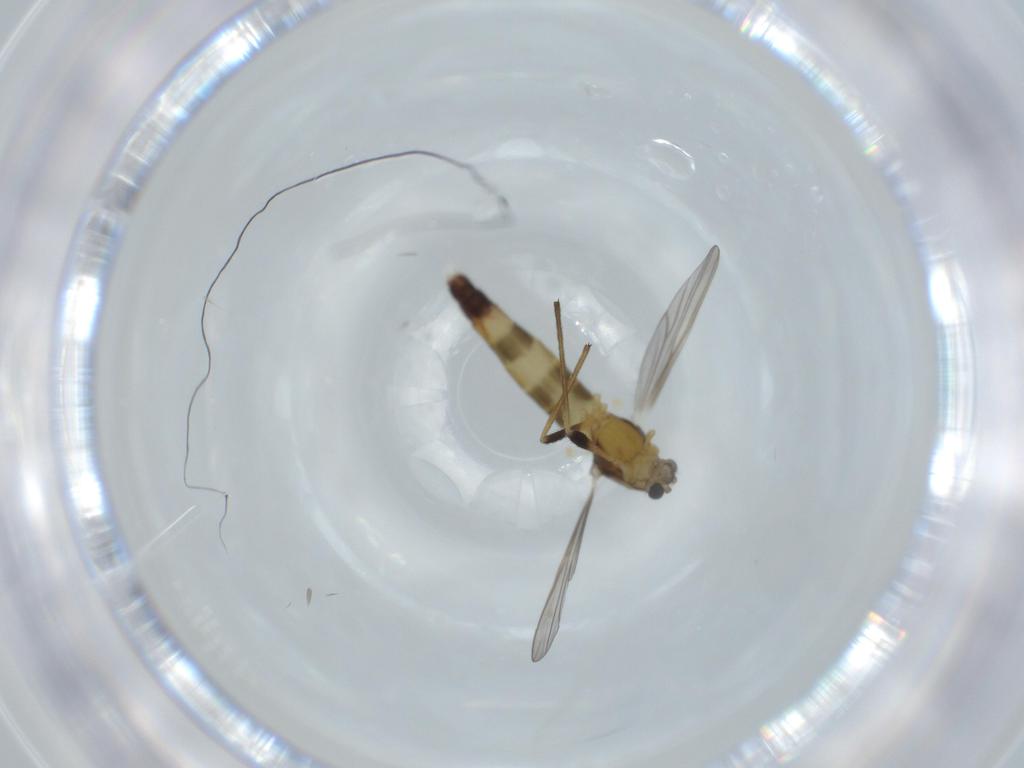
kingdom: Animalia
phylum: Arthropoda
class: Insecta
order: Diptera
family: Chironomidae
